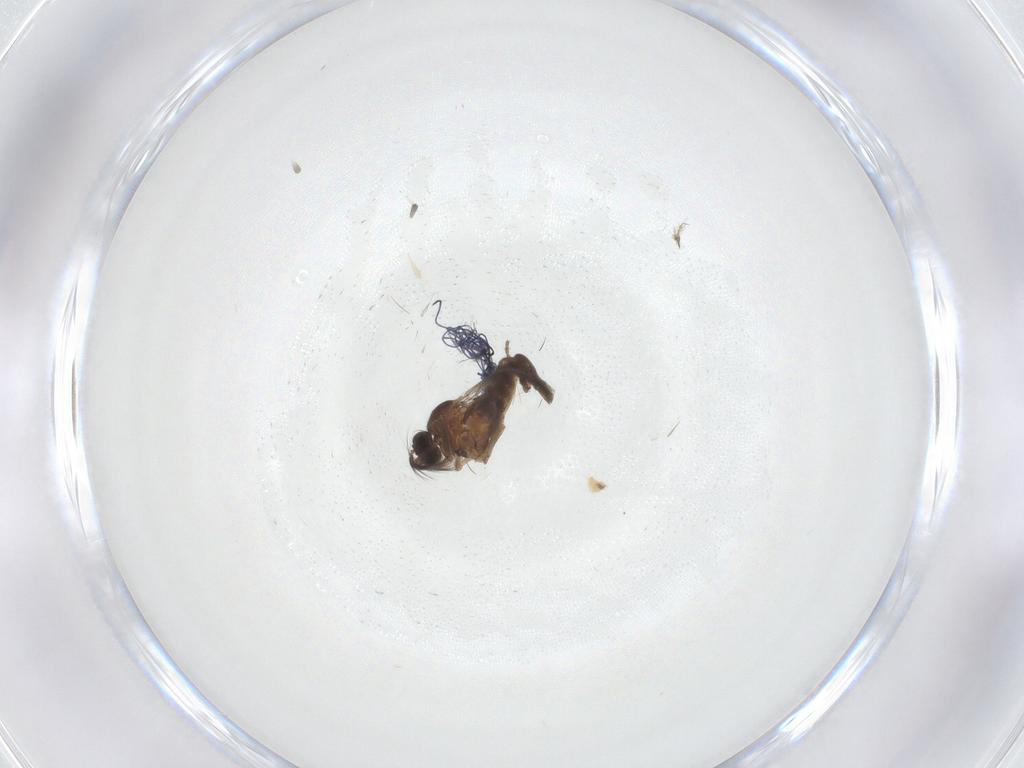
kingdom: Animalia
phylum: Arthropoda
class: Insecta
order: Diptera
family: Ceratopogonidae
